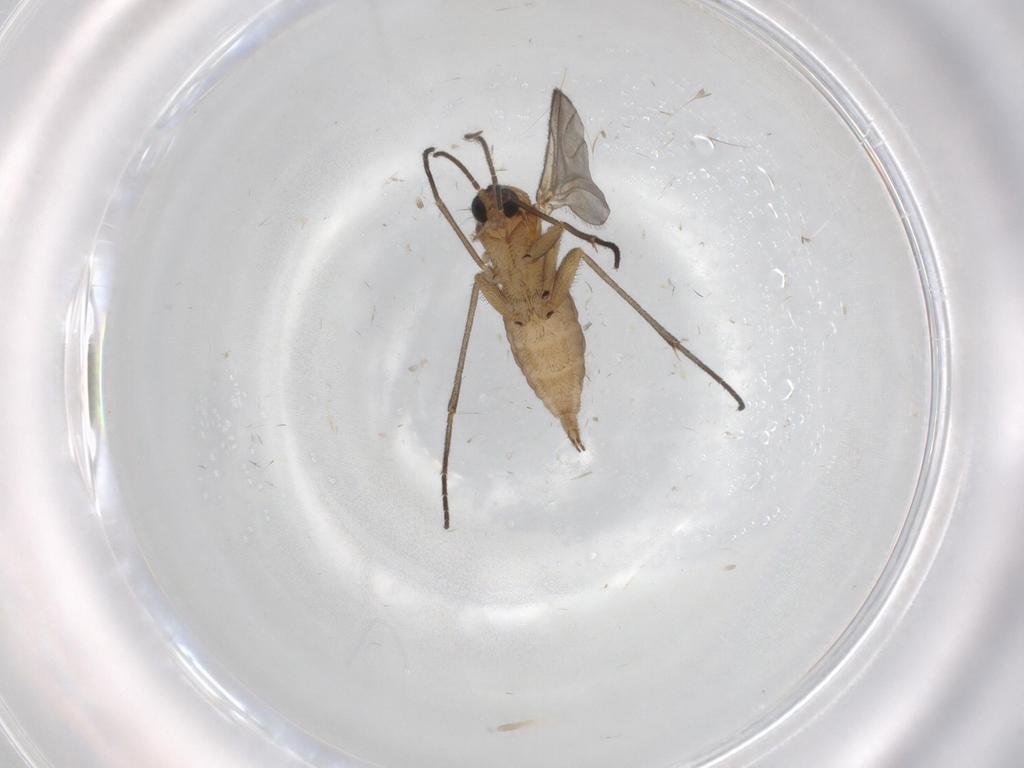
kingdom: Animalia
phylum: Arthropoda
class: Insecta
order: Diptera
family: Sciaridae
